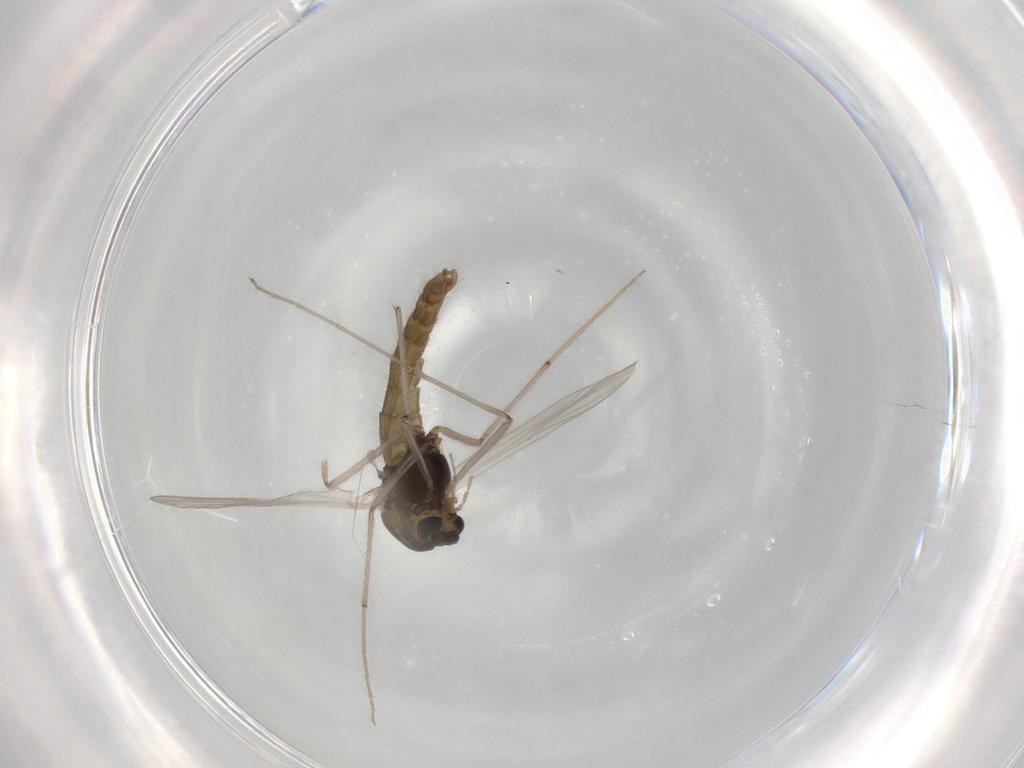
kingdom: Animalia
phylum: Arthropoda
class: Insecta
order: Diptera
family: Chironomidae
